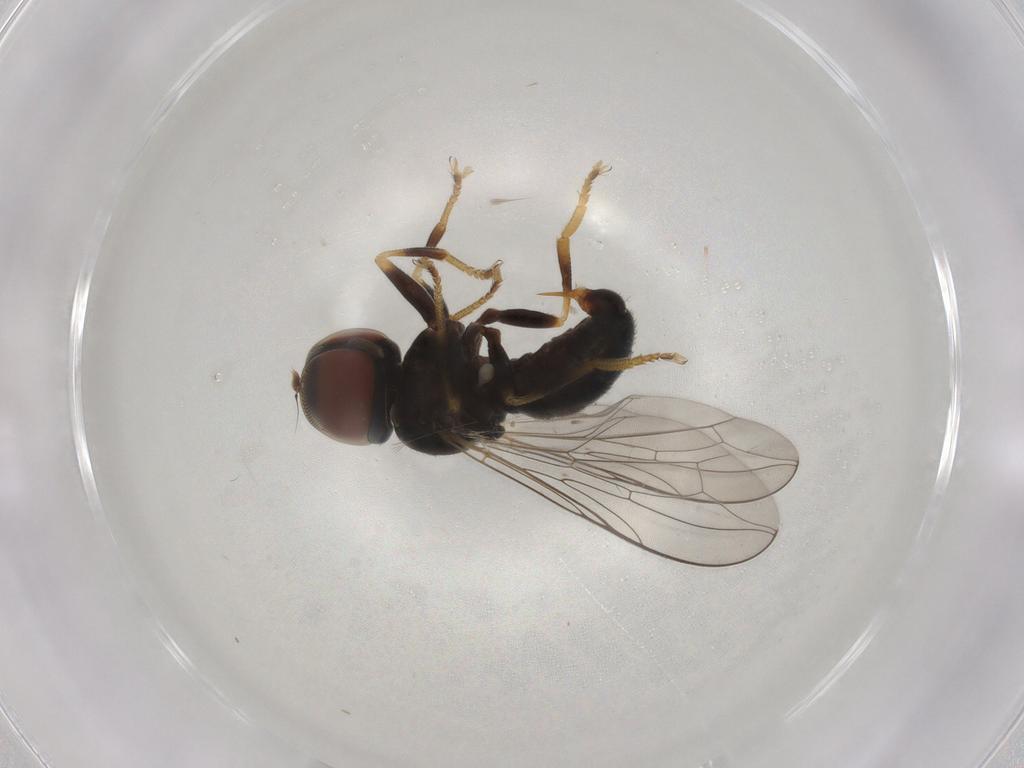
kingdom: Animalia
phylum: Arthropoda
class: Insecta
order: Diptera
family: Pipunculidae
